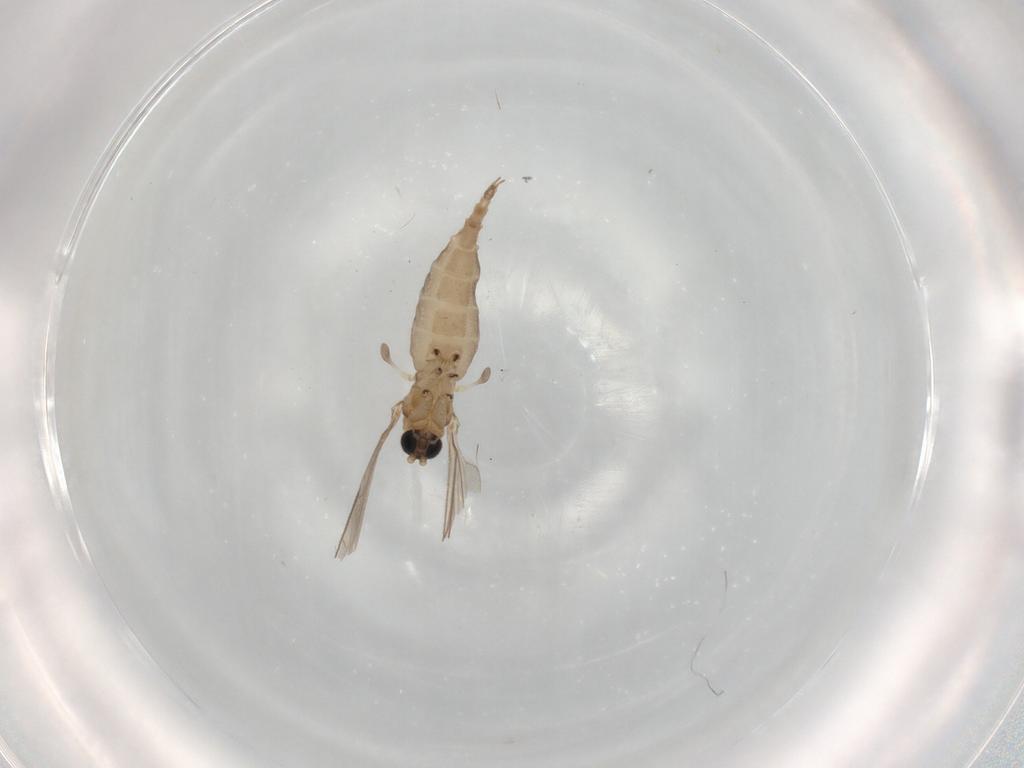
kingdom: Animalia
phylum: Arthropoda
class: Insecta
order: Diptera
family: Sciaridae
